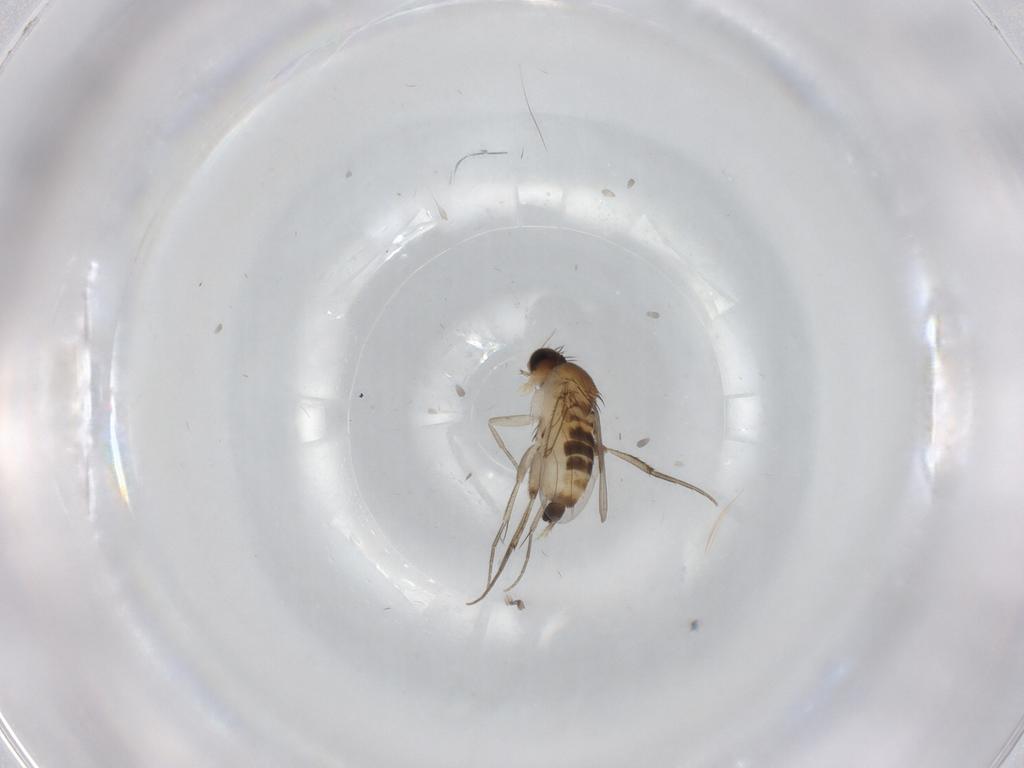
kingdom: Animalia
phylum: Arthropoda
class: Insecta
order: Diptera
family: Phoridae
